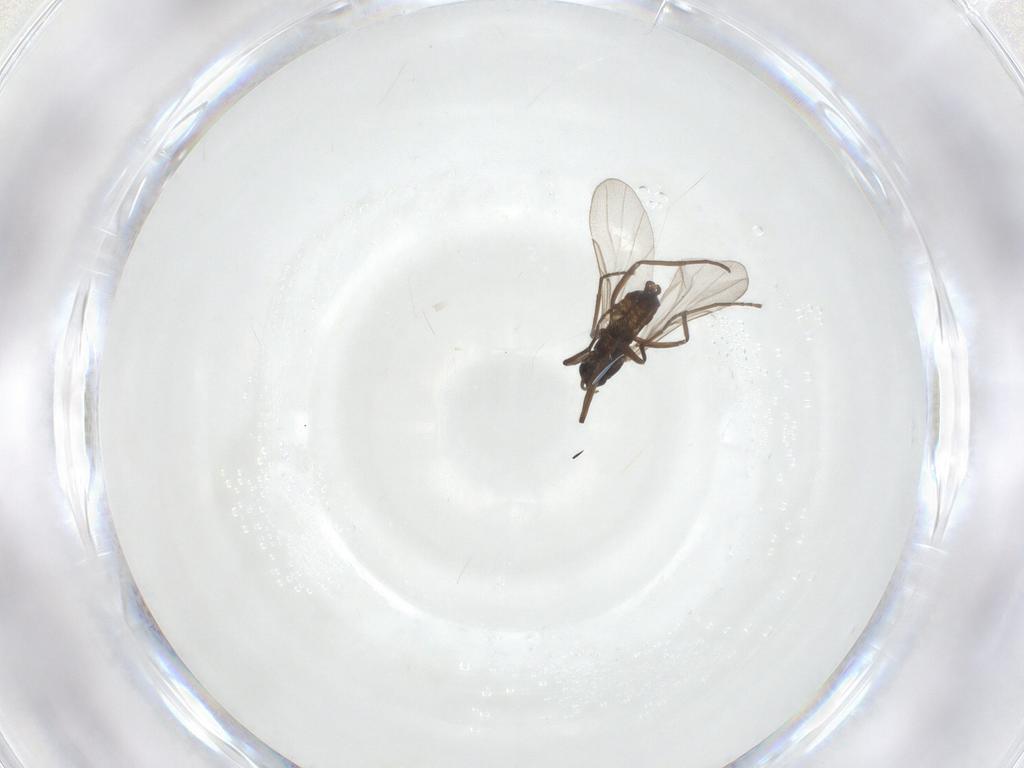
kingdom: Animalia
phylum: Arthropoda
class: Insecta
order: Diptera
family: Cecidomyiidae
